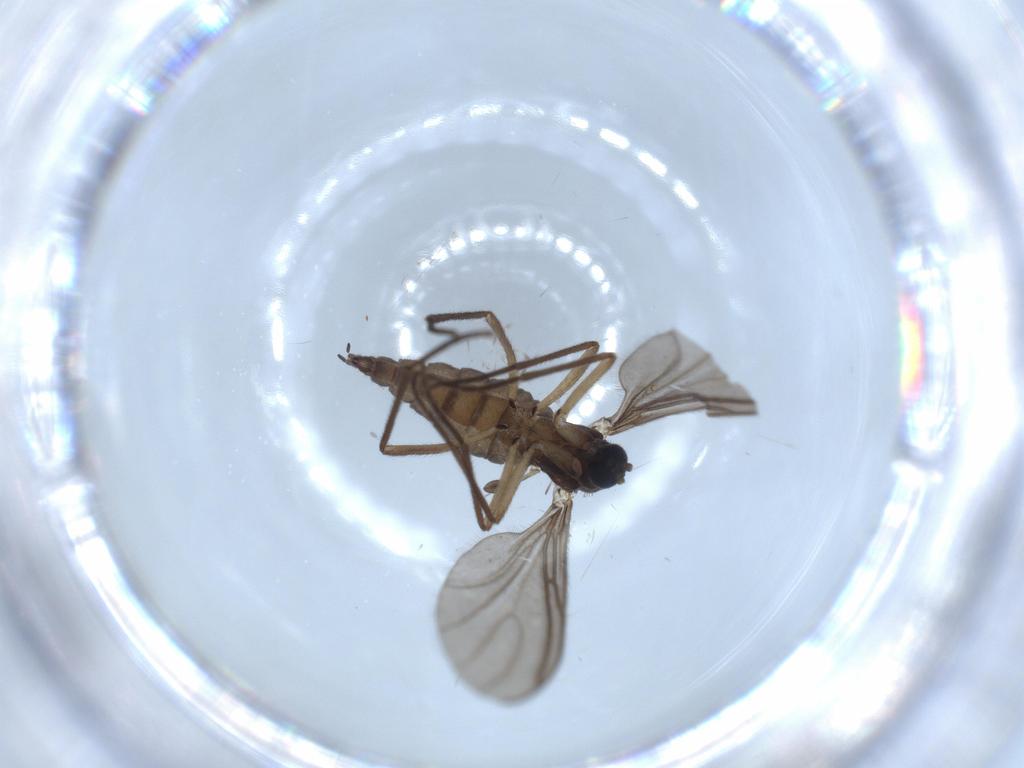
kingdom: Animalia
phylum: Arthropoda
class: Insecta
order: Diptera
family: Sciaridae
